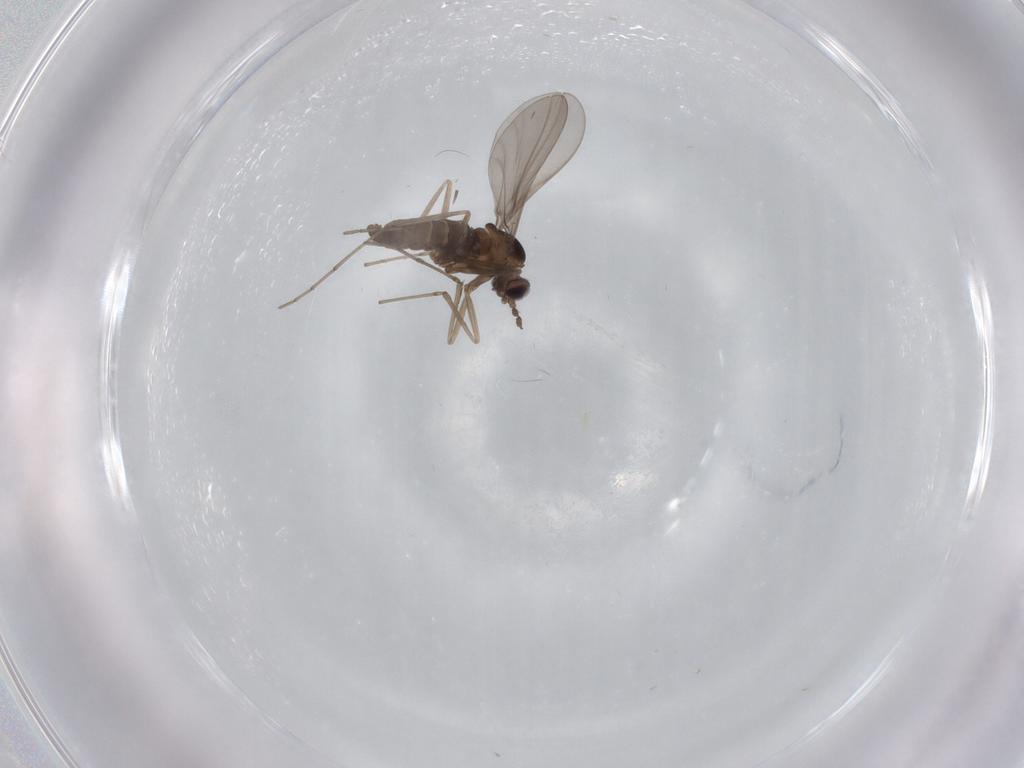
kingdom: Animalia
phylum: Arthropoda
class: Insecta
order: Diptera
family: Cecidomyiidae
